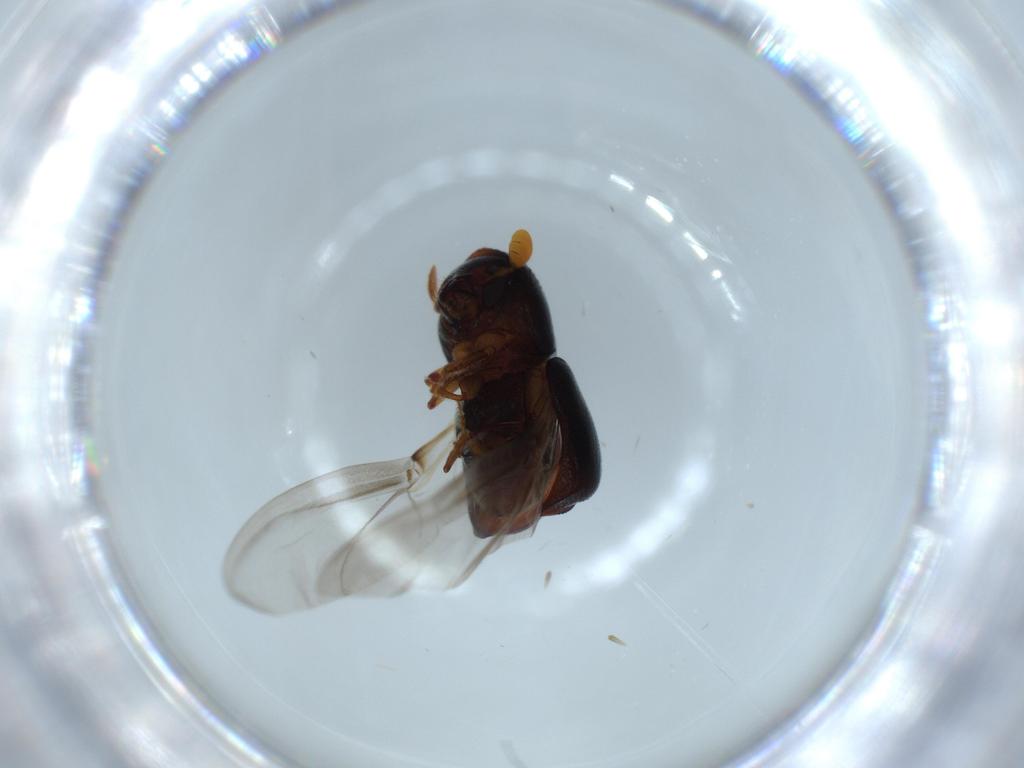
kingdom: Animalia
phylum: Arthropoda
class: Insecta
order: Coleoptera
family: Curculionidae
